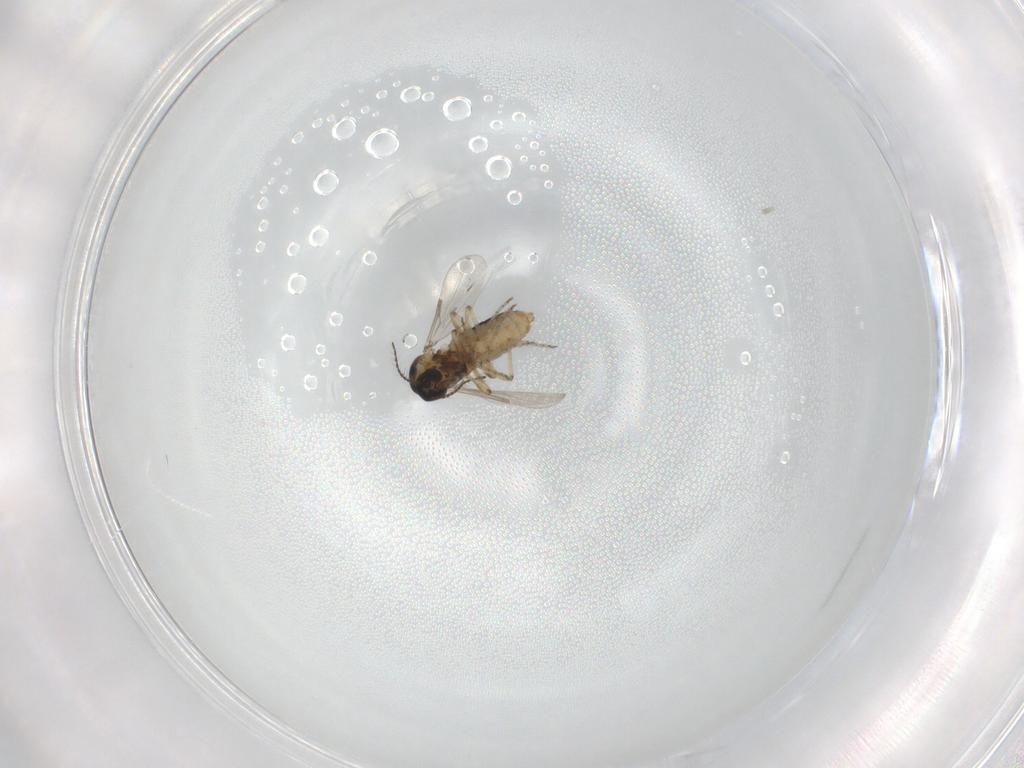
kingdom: Animalia
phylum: Arthropoda
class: Insecta
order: Diptera
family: Ceratopogonidae
